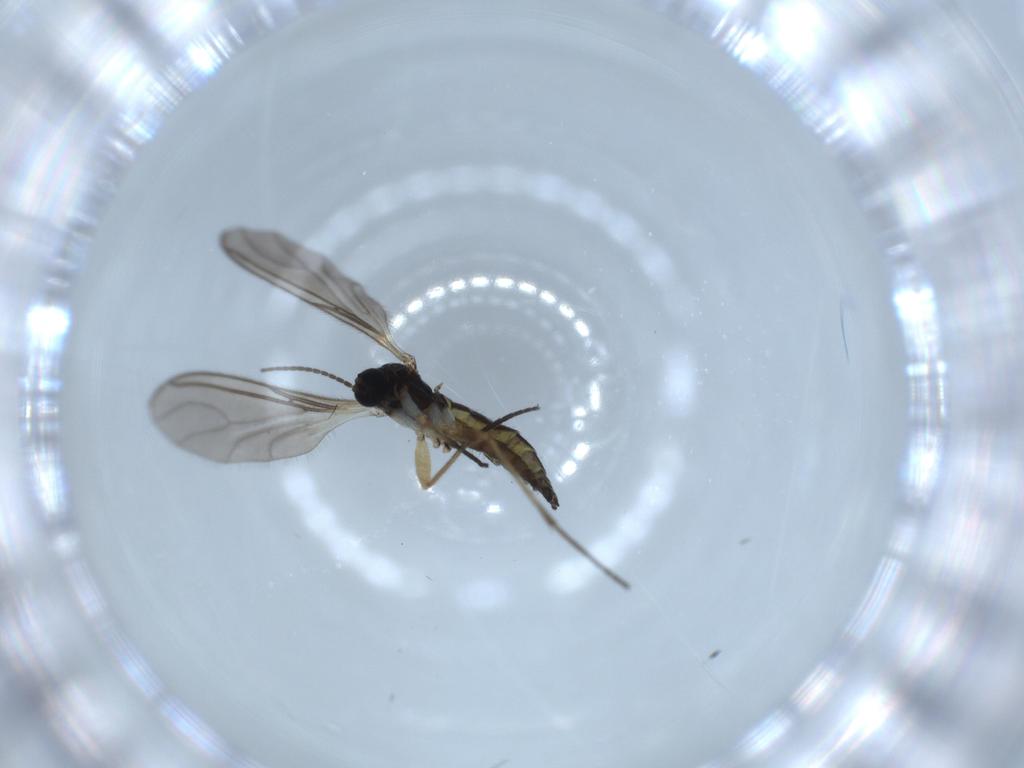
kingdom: Animalia
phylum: Arthropoda
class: Insecta
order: Diptera
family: Sciaridae
